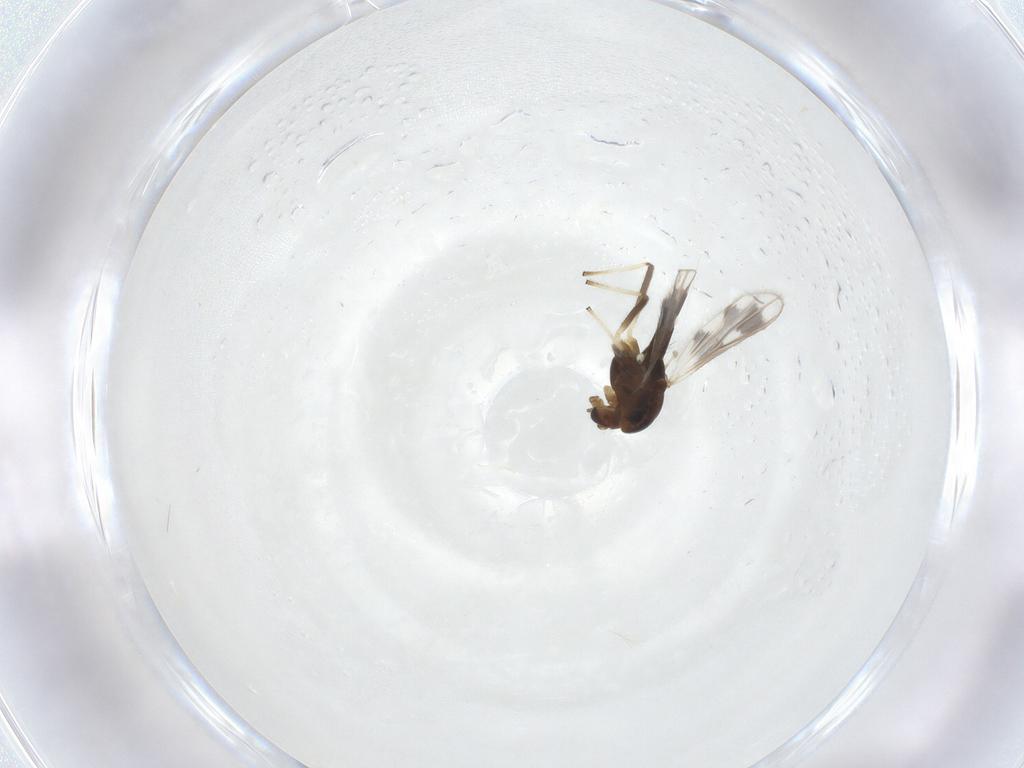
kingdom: Animalia
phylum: Arthropoda
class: Insecta
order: Diptera
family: Chironomidae
